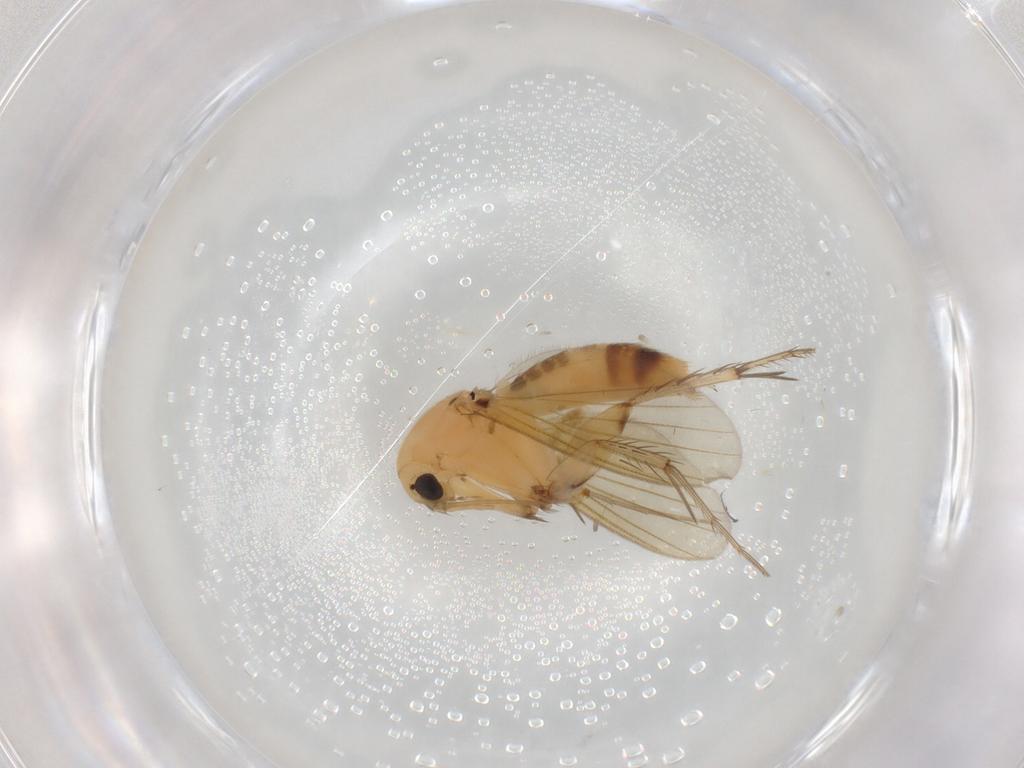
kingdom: Animalia
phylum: Arthropoda
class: Insecta
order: Diptera
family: Mycetophilidae
